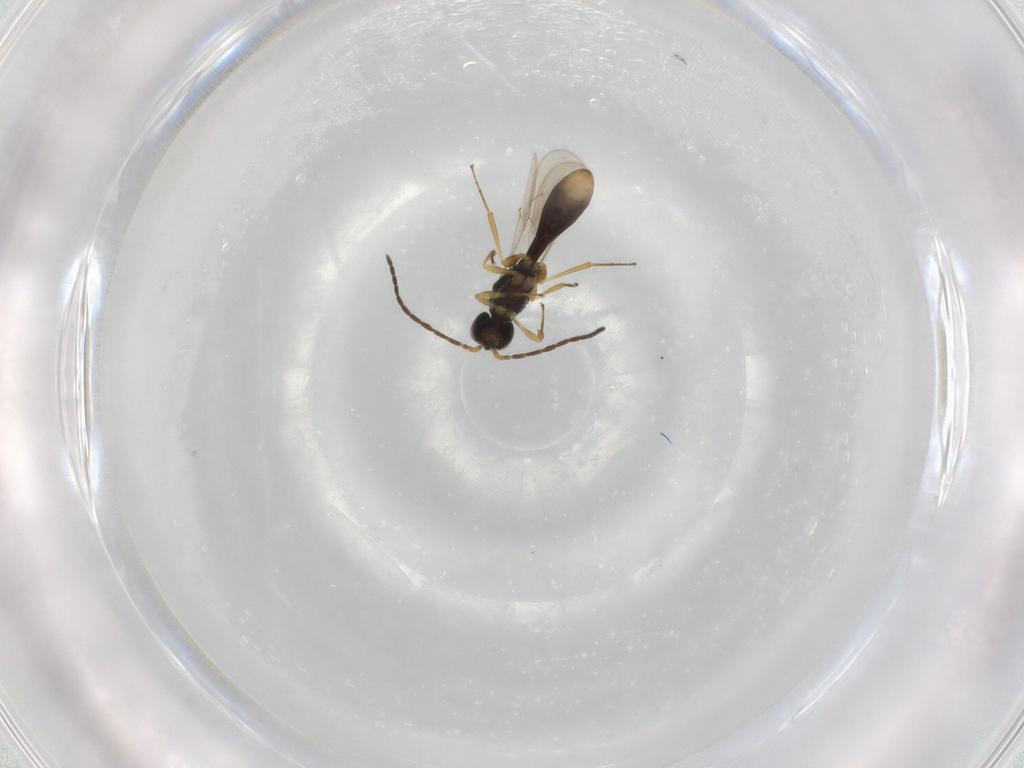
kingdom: Animalia
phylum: Arthropoda
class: Insecta
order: Hymenoptera
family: Scelionidae
